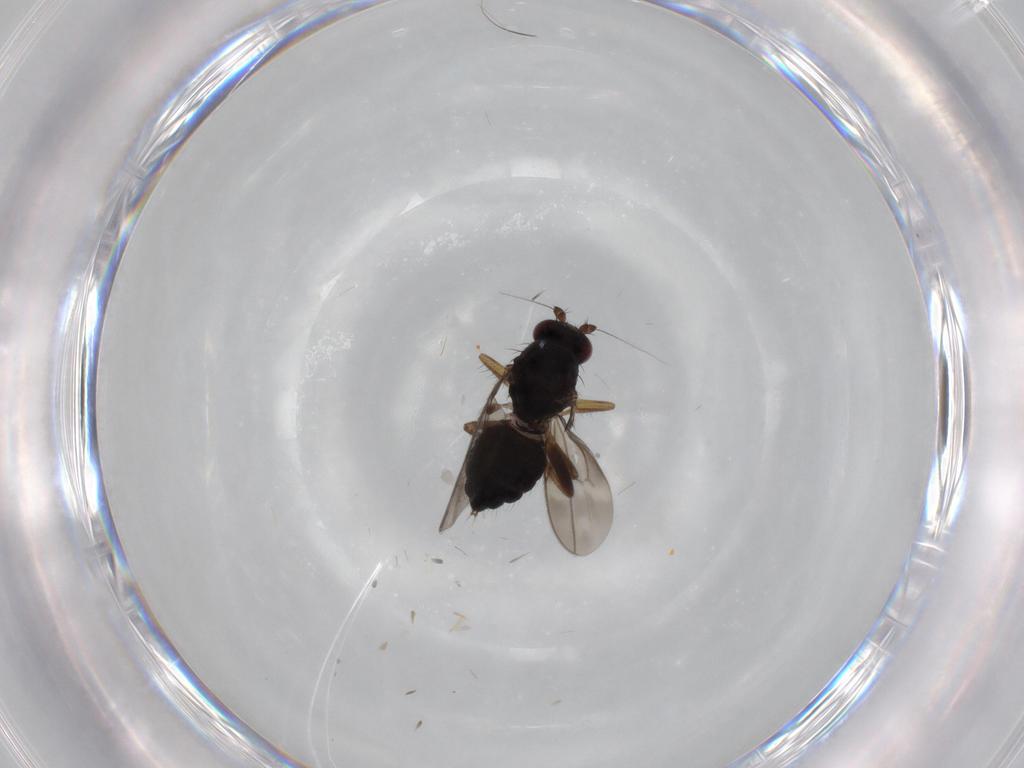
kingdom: Animalia
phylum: Arthropoda
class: Insecta
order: Diptera
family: Sphaeroceridae
